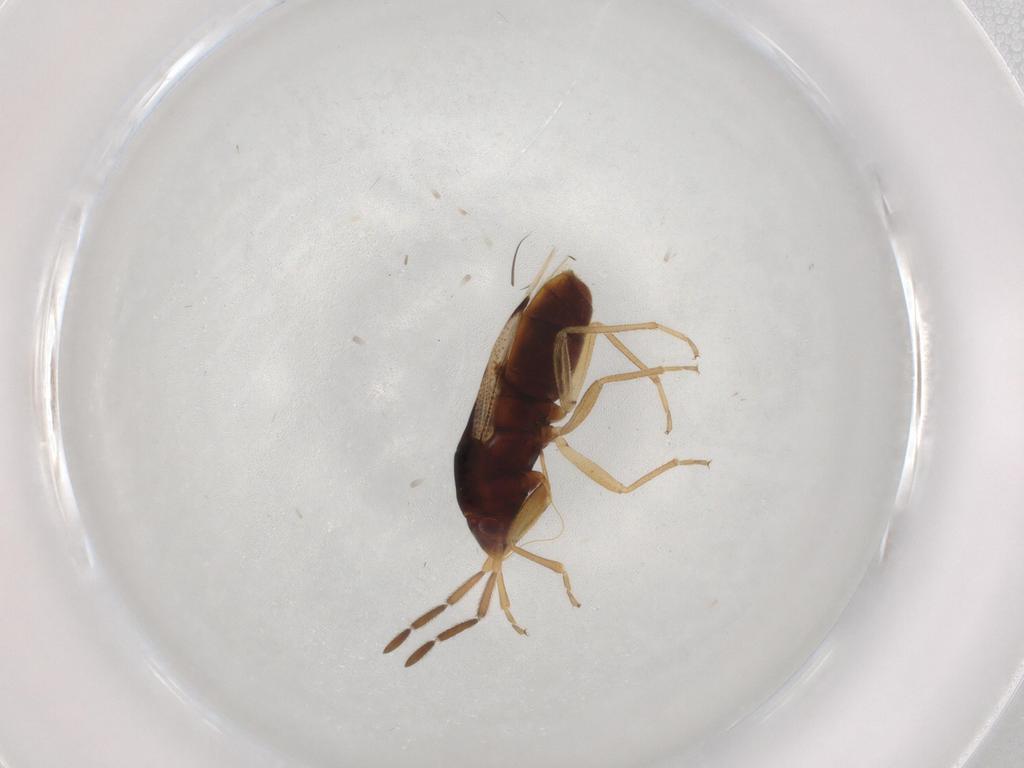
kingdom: Animalia
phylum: Arthropoda
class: Insecta
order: Hemiptera
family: Rhyparochromidae
